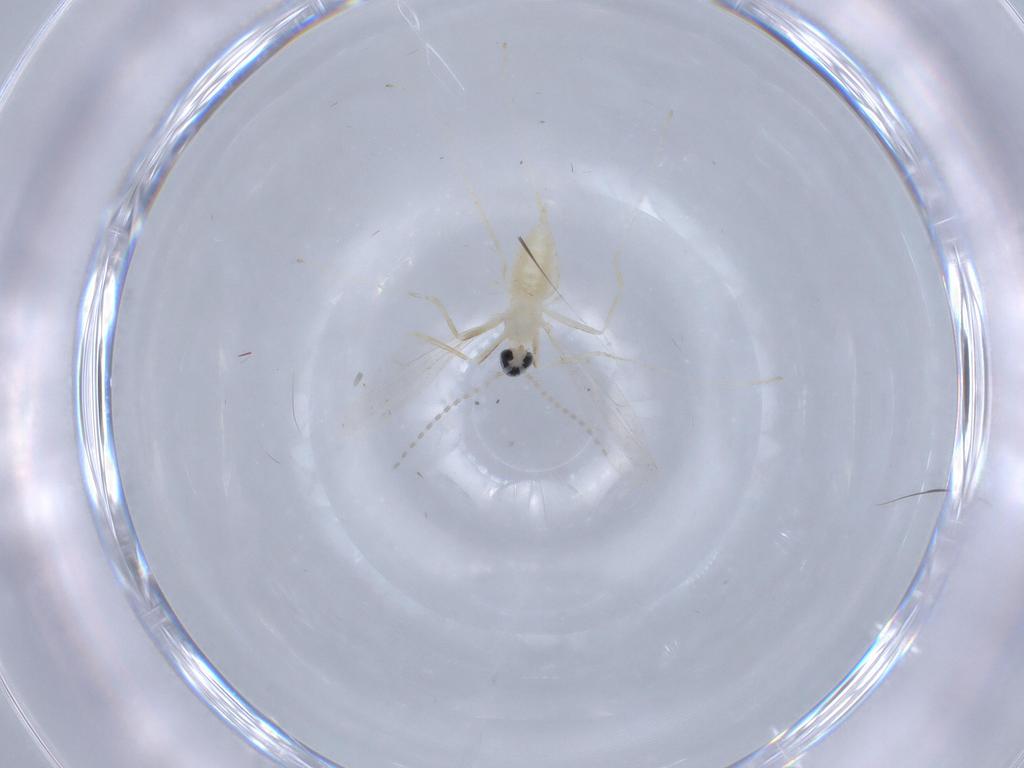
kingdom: Animalia
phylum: Arthropoda
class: Insecta
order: Diptera
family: Cecidomyiidae
